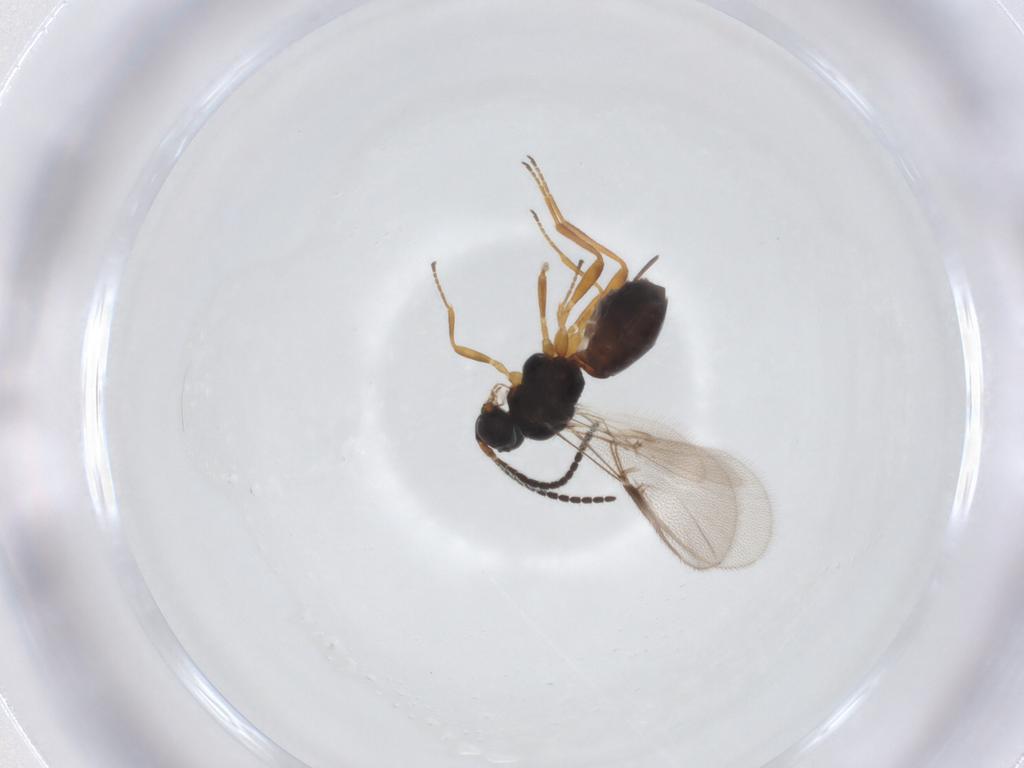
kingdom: Animalia
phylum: Arthropoda
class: Insecta
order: Hymenoptera
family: Braconidae
